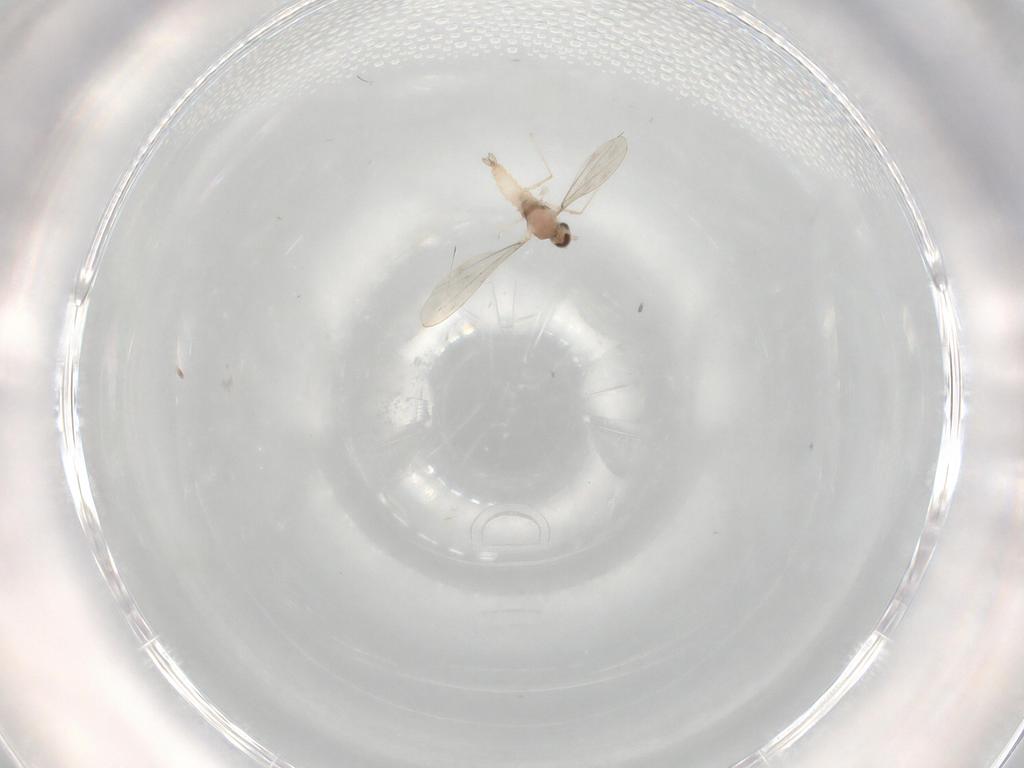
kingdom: Animalia
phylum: Arthropoda
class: Insecta
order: Diptera
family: Cecidomyiidae
